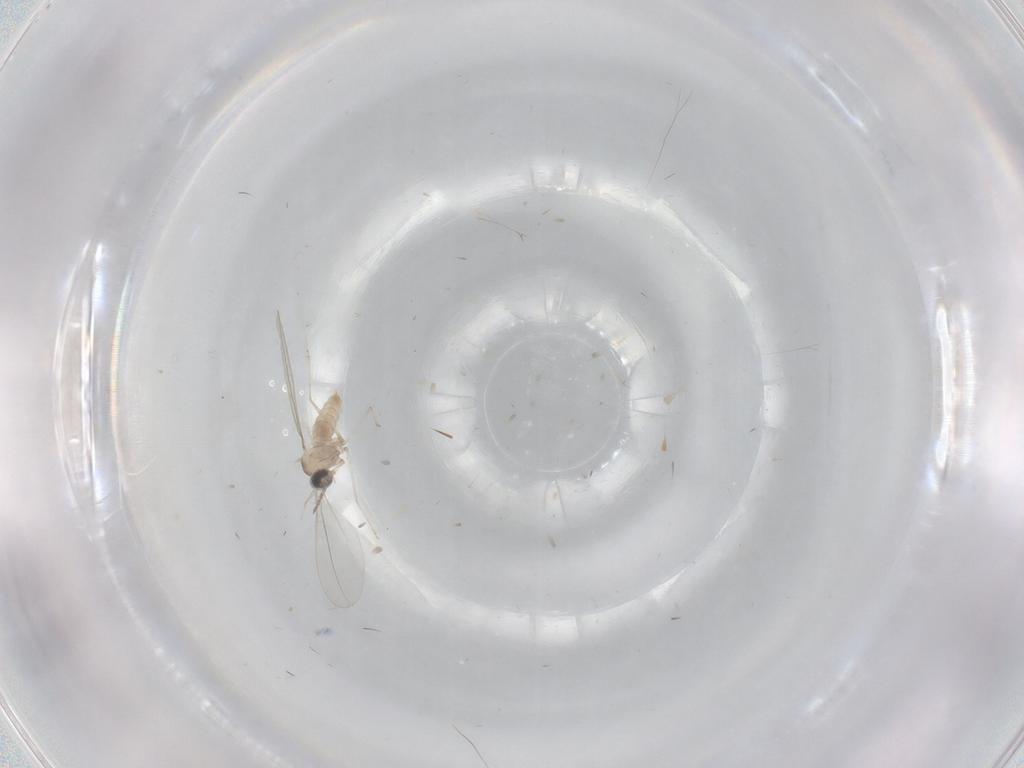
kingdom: Animalia
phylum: Arthropoda
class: Insecta
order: Diptera
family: Cecidomyiidae
